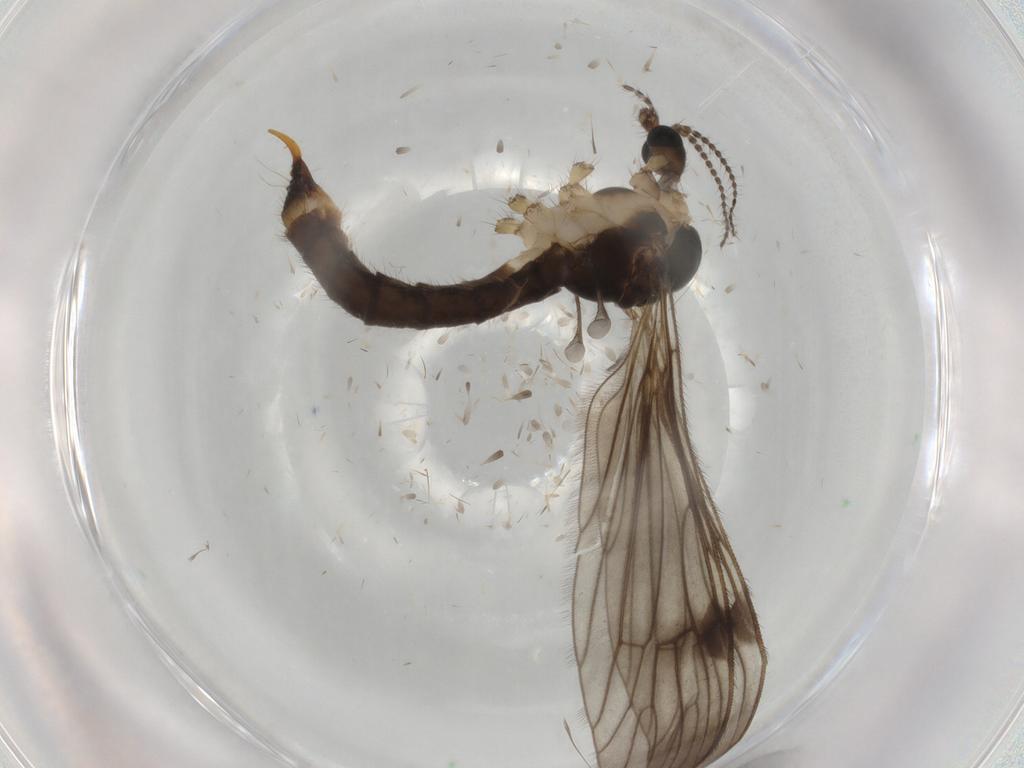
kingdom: Animalia
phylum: Arthropoda
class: Insecta
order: Diptera
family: Limoniidae
